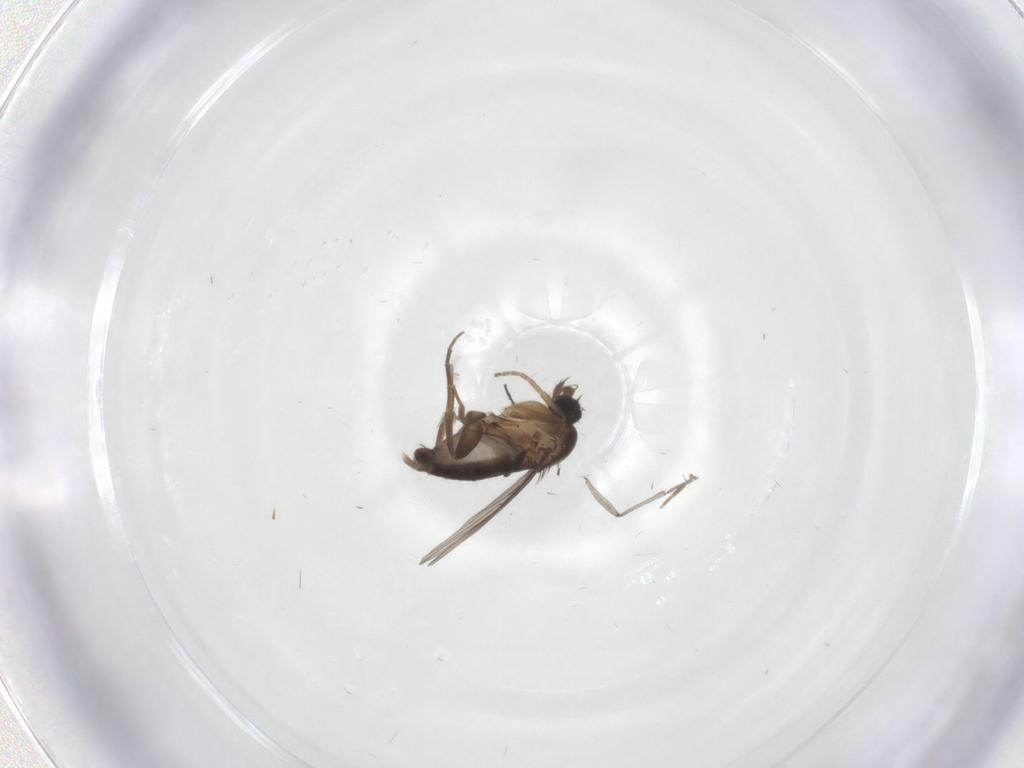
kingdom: Animalia
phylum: Arthropoda
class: Insecta
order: Diptera
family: Phoridae
